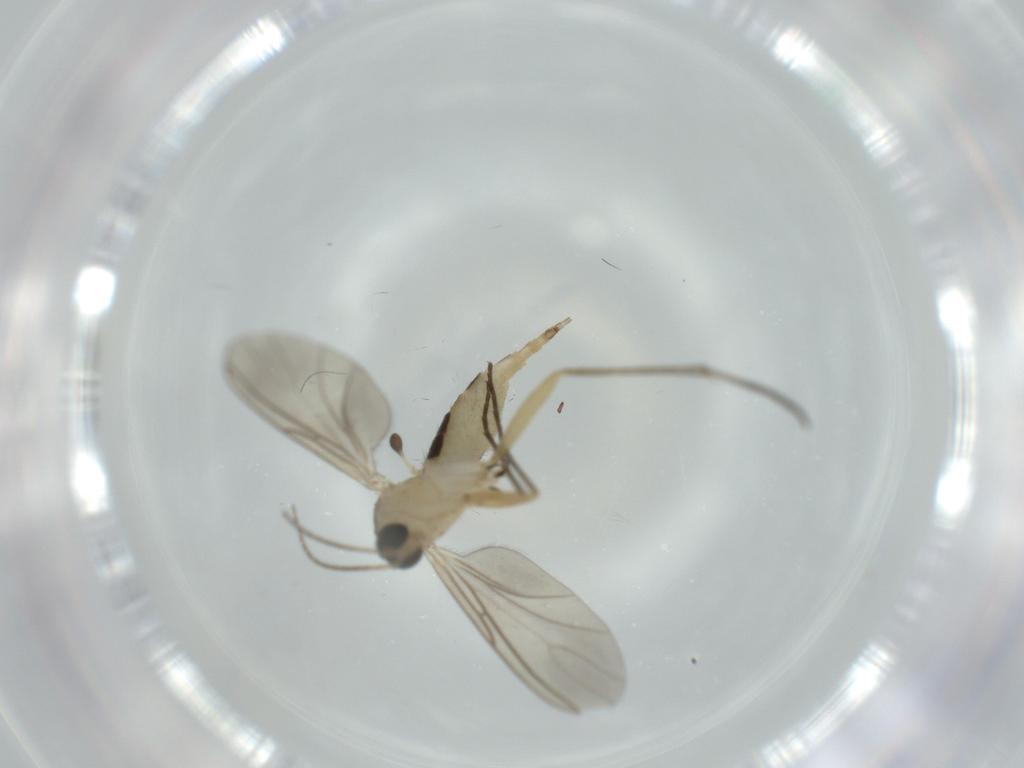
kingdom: Animalia
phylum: Arthropoda
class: Insecta
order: Diptera
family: Sciaridae
